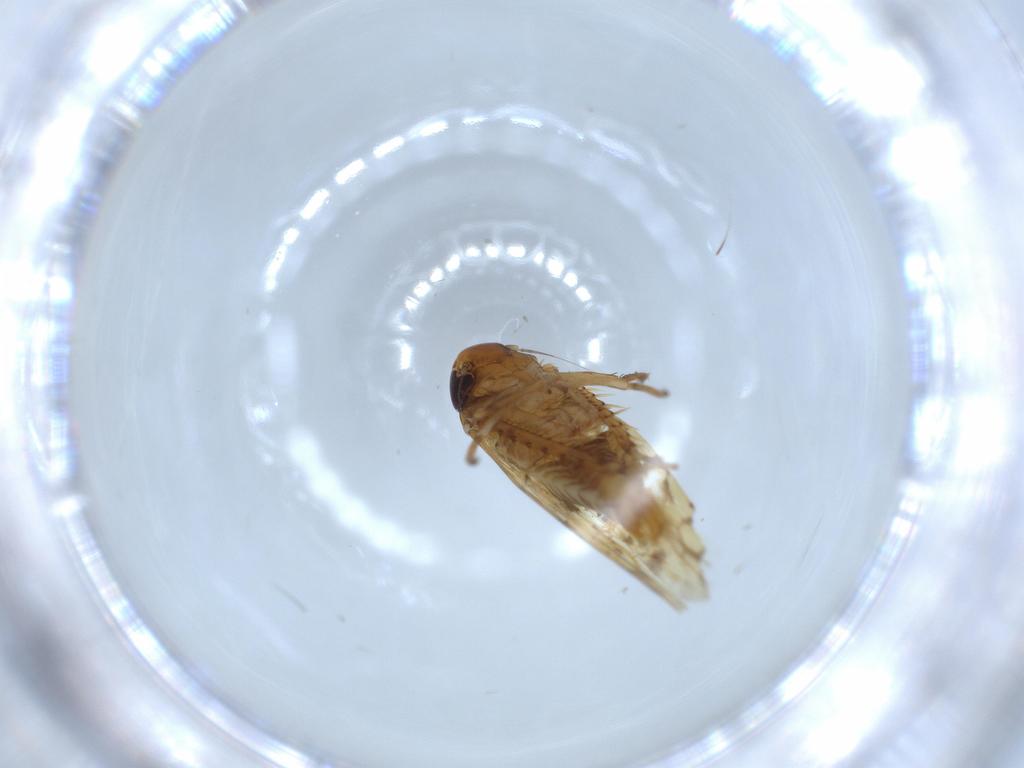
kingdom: Animalia
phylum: Arthropoda
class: Insecta
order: Hemiptera
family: Cicadellidae
